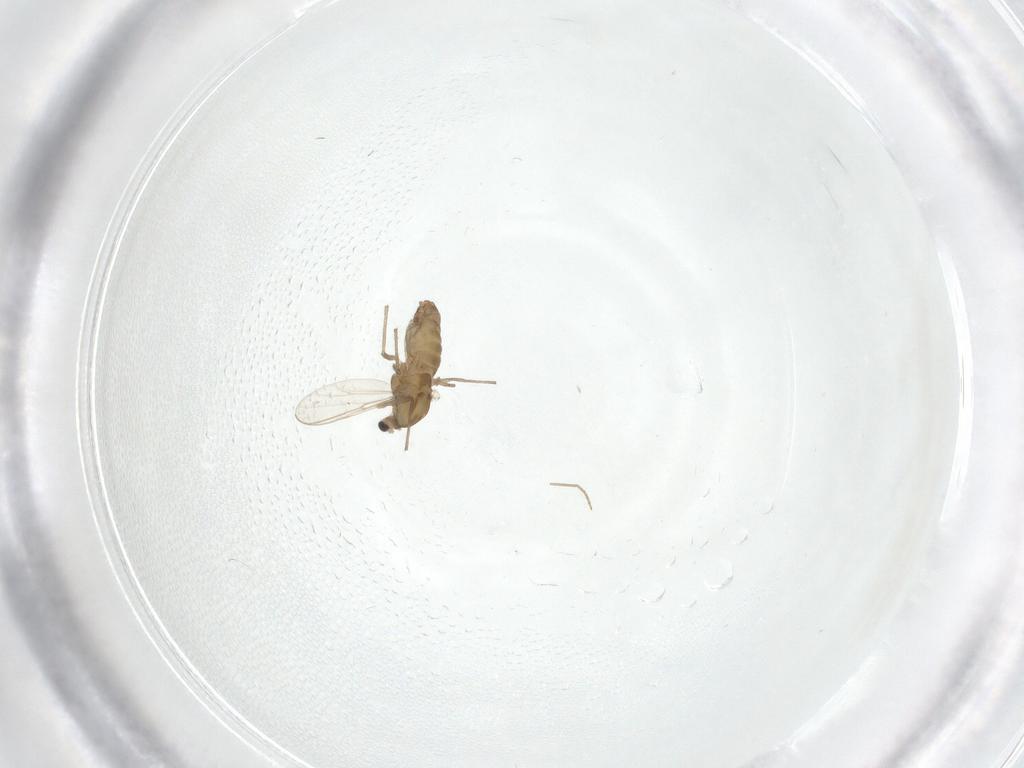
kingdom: Animalia
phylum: Arthropoda
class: Insecta
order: Diptera
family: Chironomidae
